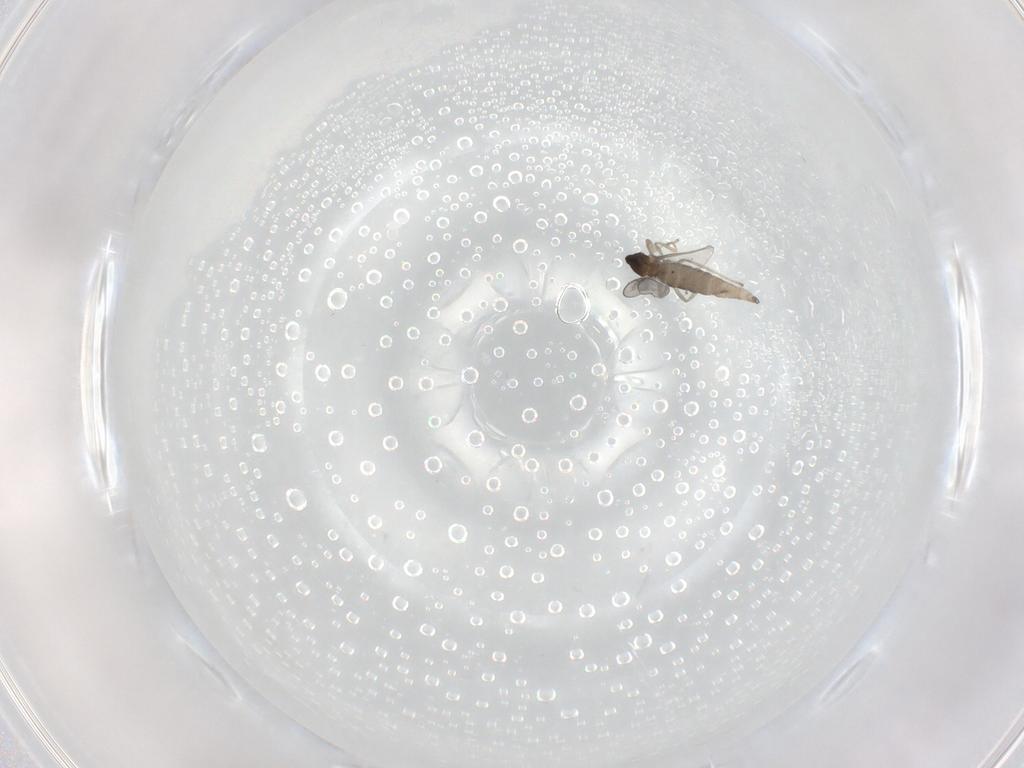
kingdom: Animalia
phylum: Arthropoda
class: Insecta
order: Diptera
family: Cecidomyiidae
